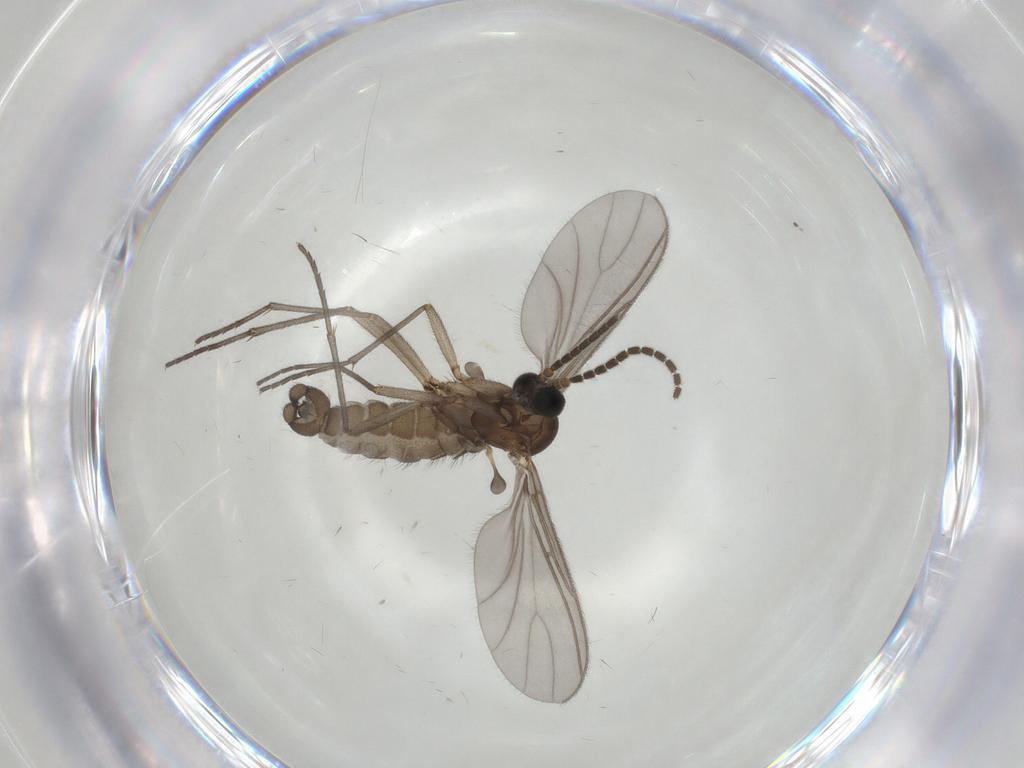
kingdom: Animalia
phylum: Arthropoda
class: Insecta
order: Diptera
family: Sciaridae
